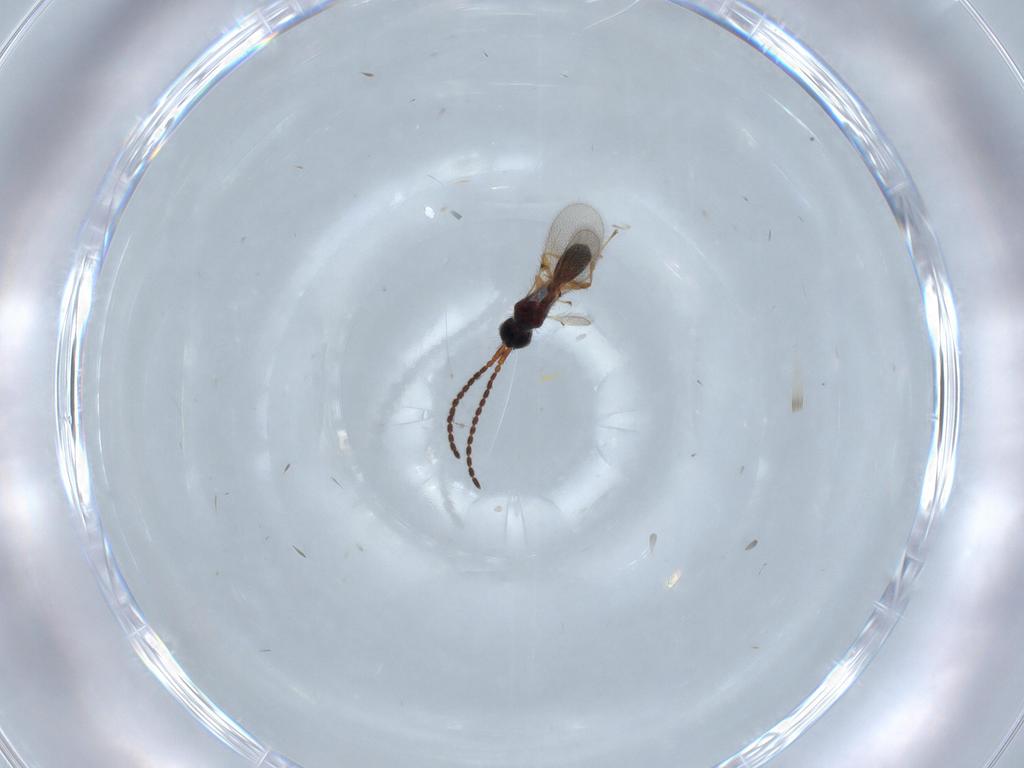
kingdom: Animalia
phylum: Arthropoda
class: Insecta
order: Hymenoptera
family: Diapriidae
